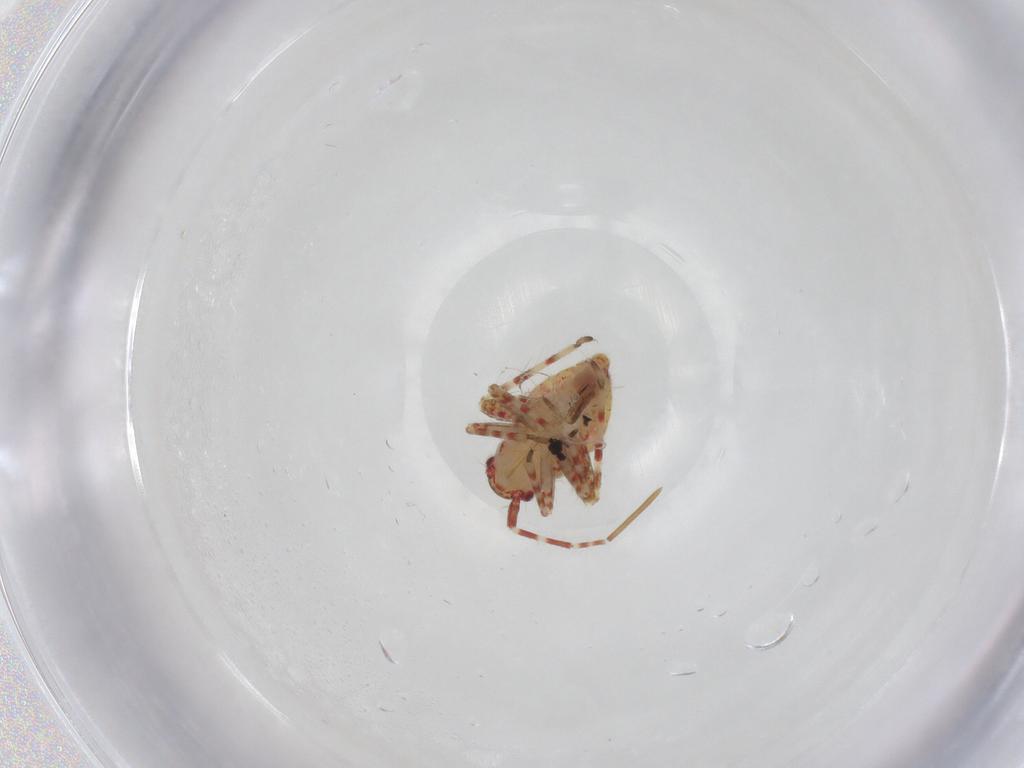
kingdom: Animalia
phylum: Arthropoda
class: Insecta
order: Hemiptera
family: Miridae
